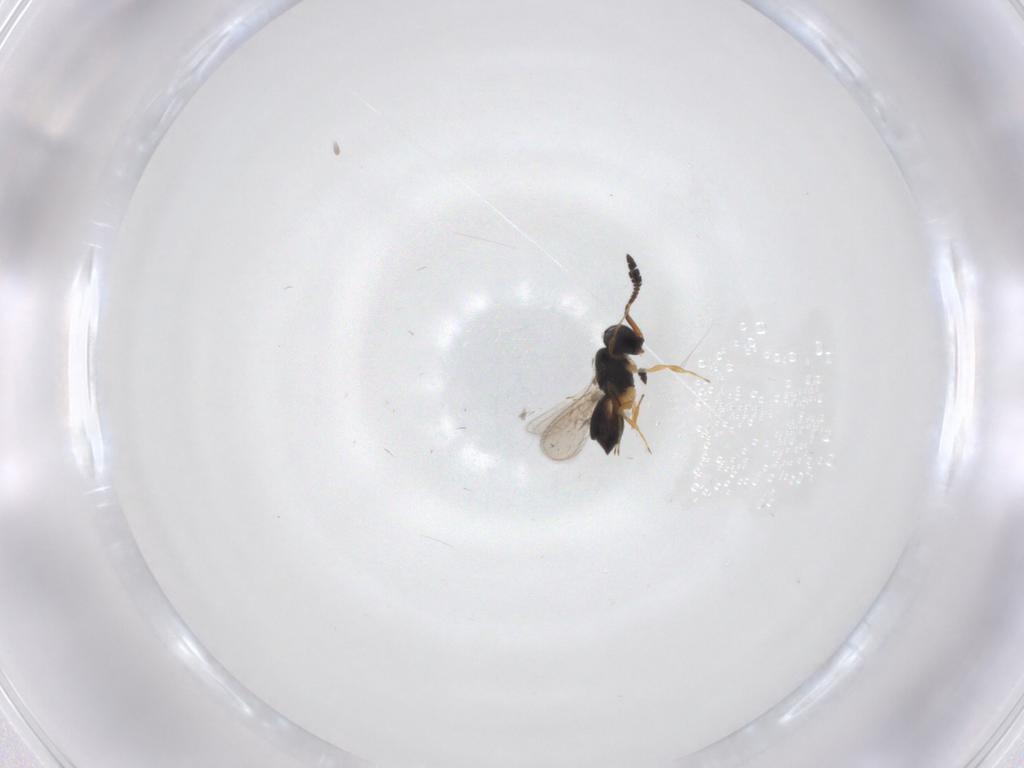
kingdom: Animalia
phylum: Arthropoda
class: Insecta
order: Hymenoptera
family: Scelionidae
